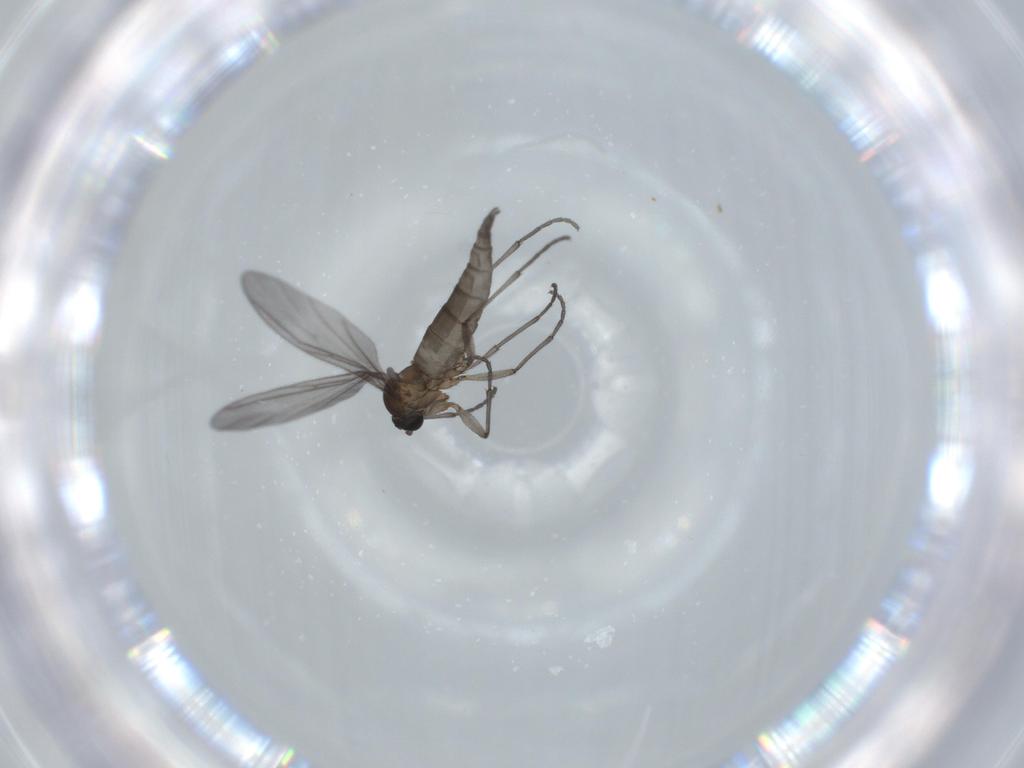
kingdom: Animalia
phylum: Arthropoda
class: Insecta
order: Diptera
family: Sciaridae
